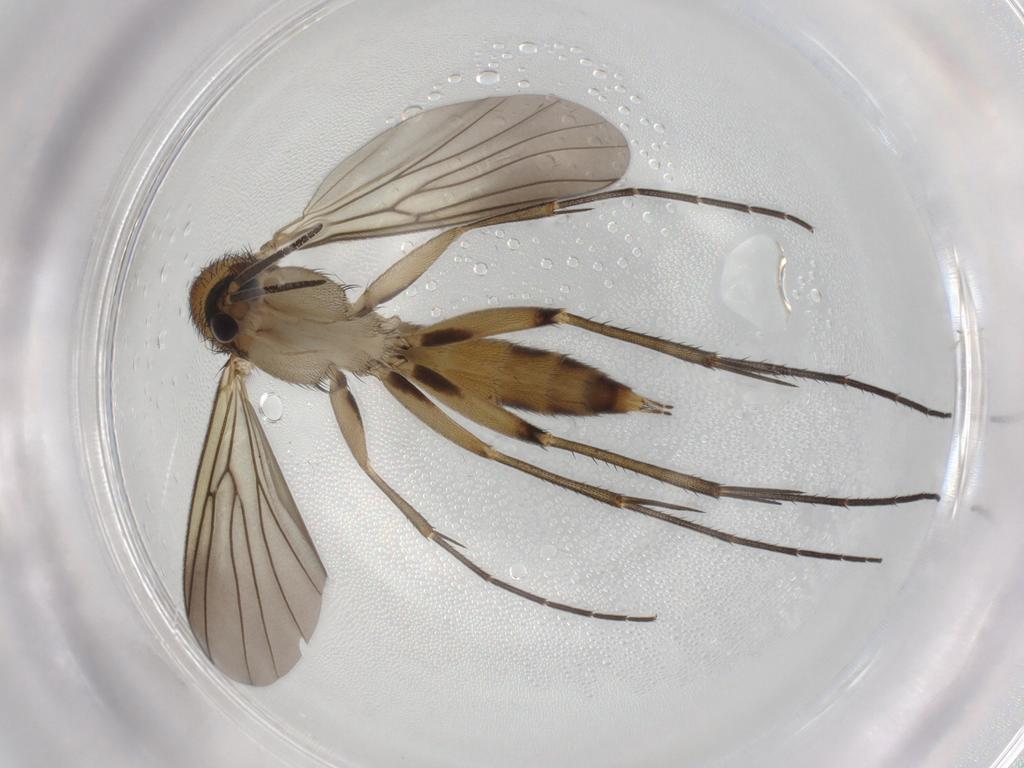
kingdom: Animalia
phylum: Arthropoda
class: Insecta
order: Diptera
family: Mycetophilidae
